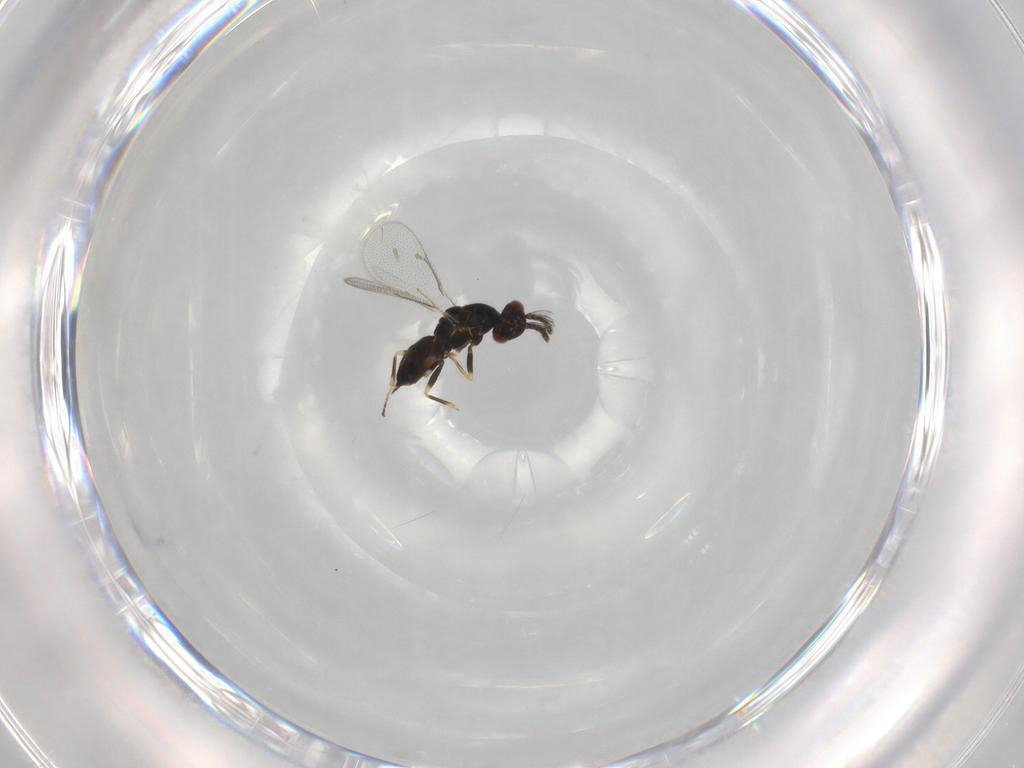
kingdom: Animalia
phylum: Arthropoda
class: Insecta
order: Hymenoptera
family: Eulophidae
